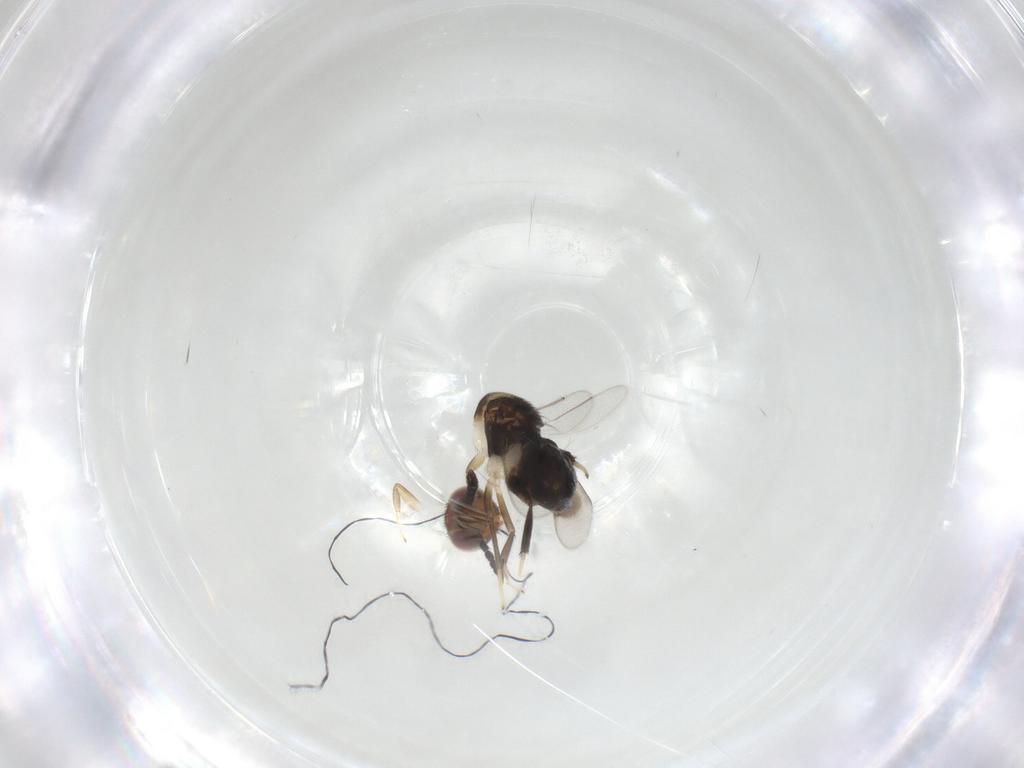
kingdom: Animalia
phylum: Arthropoda
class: Insecta
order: Hymenoptera
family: Aphelinidae
